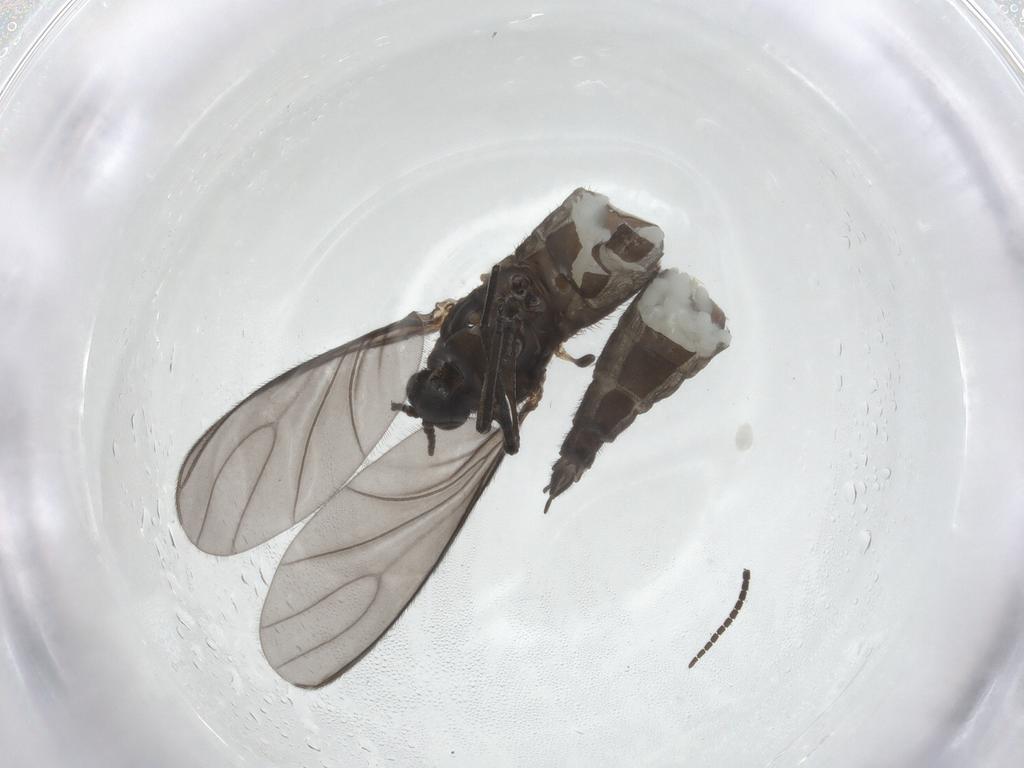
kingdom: Animalia
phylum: Arthropoda
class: Insecta
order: Diptera
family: Sciaridae
